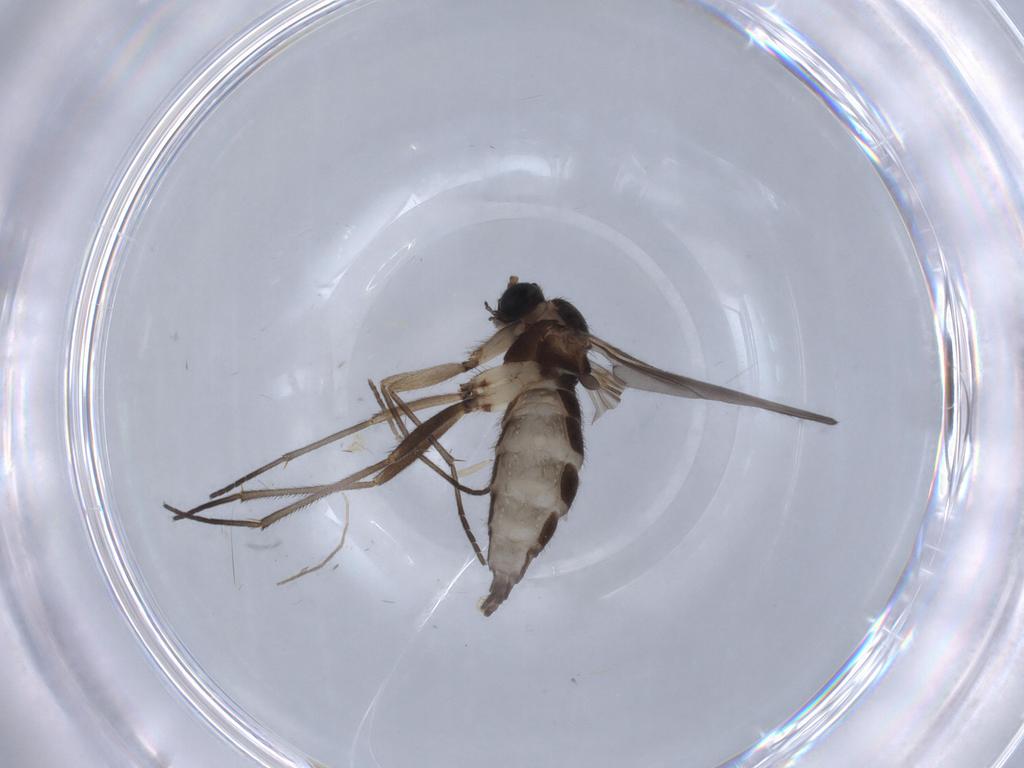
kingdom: Animalia
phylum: Arthropoda
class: Insecta
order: Diptera
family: Sciaridae
